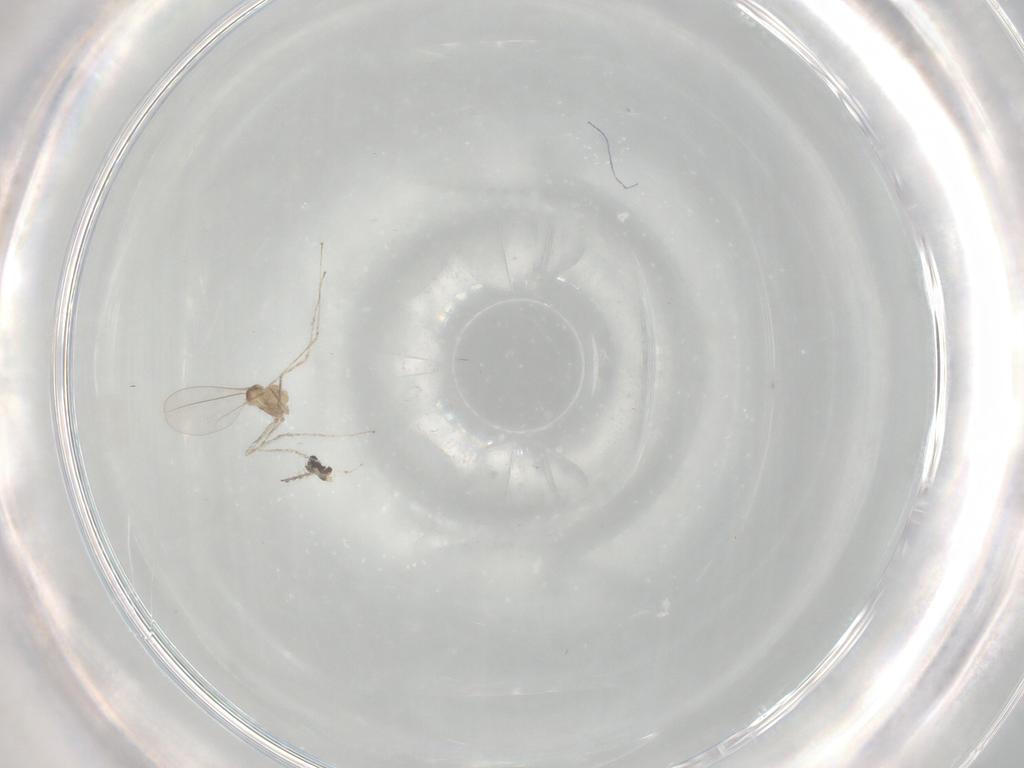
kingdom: Animalia
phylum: Arthropoda
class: Insecta
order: Diptera
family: Cecidomyiidae
